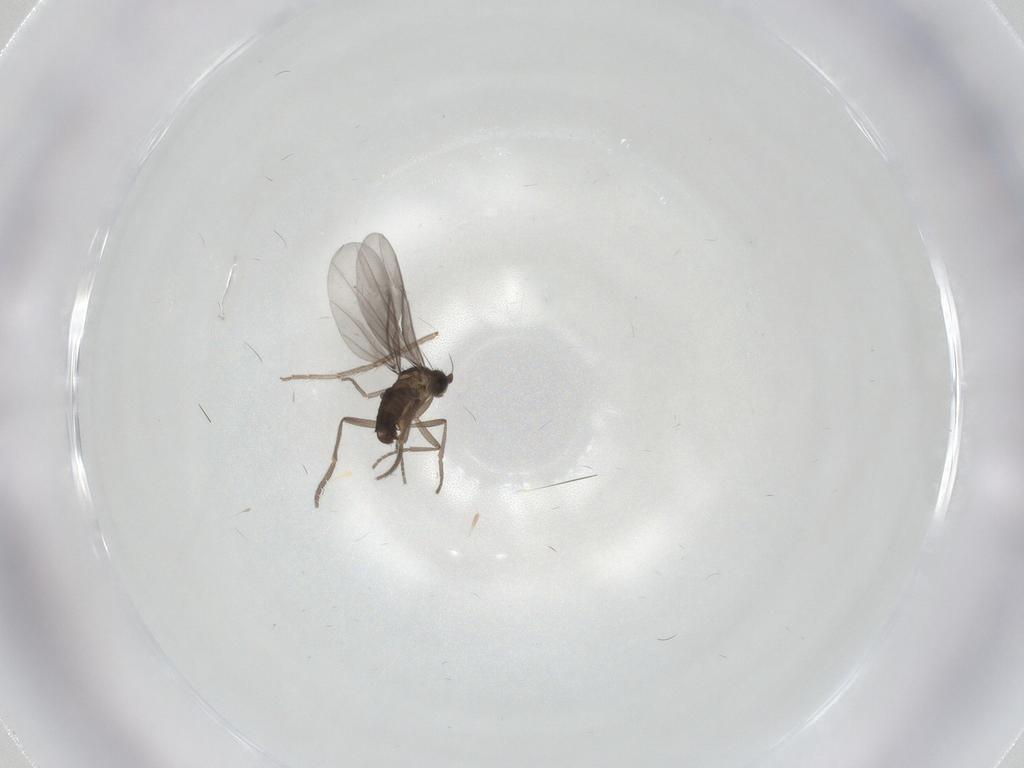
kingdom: Animalia
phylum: Arthropoda
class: Insecta
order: Diptera
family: Phoridae
